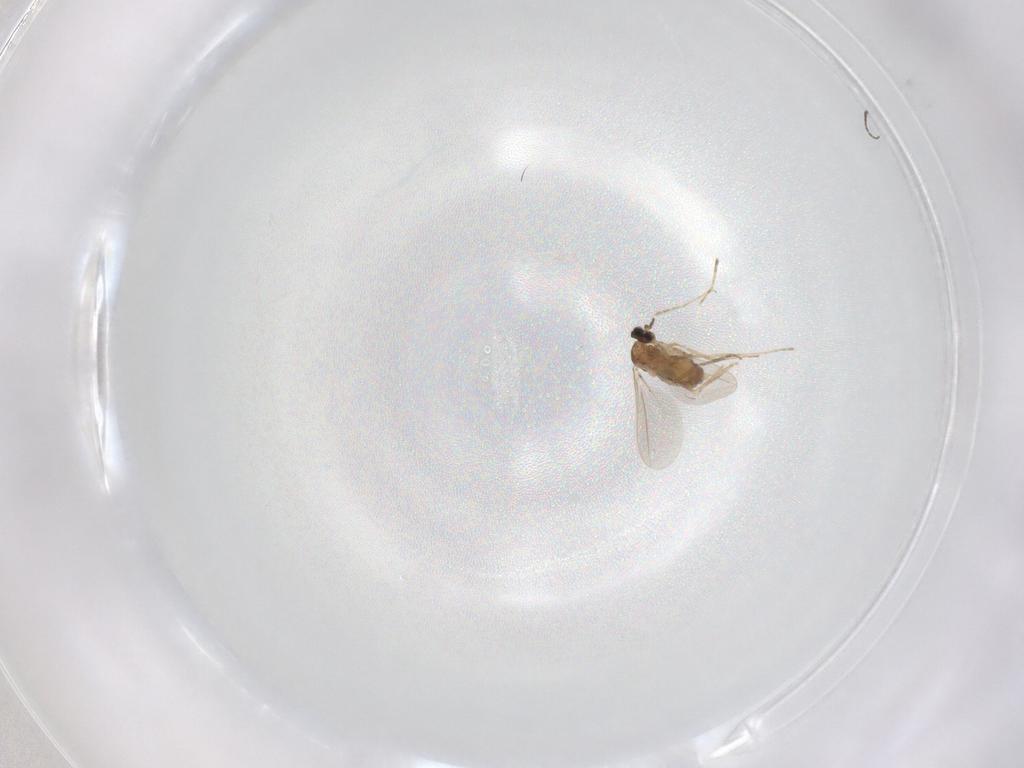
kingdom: Animalia
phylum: Arthropoda
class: Insecta
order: Diptera
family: Cecidomyiidae
